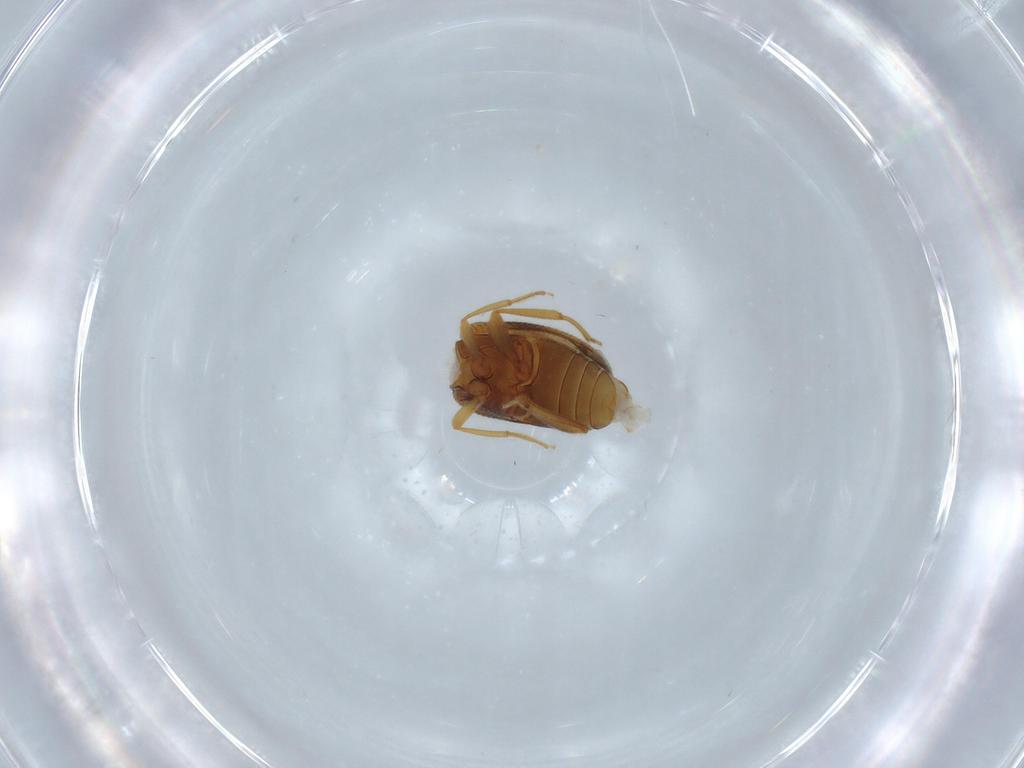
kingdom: Animalia
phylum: Arthropoda
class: Insecta
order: Coleoptera
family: Aderidae
